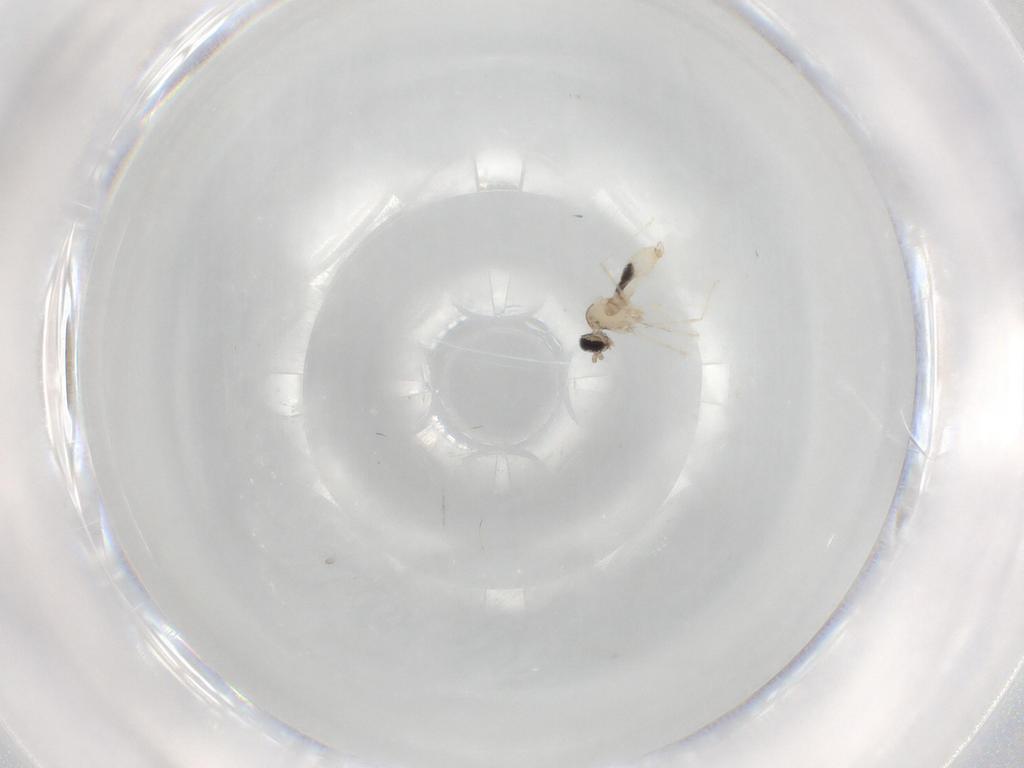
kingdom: Animalia
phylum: Arthropoda
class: Insecta
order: Diptera
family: Cecidomyiidae
